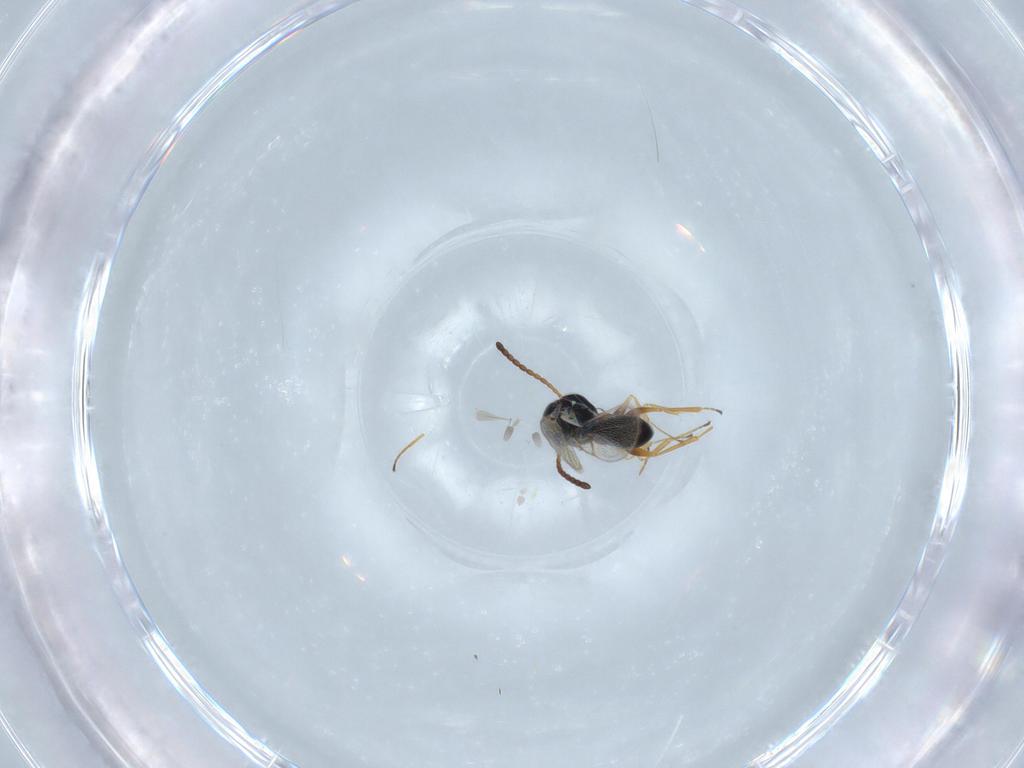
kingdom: Animalia
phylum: Arthropoda
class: Insecta
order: Hymenoptera
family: Figitidae
